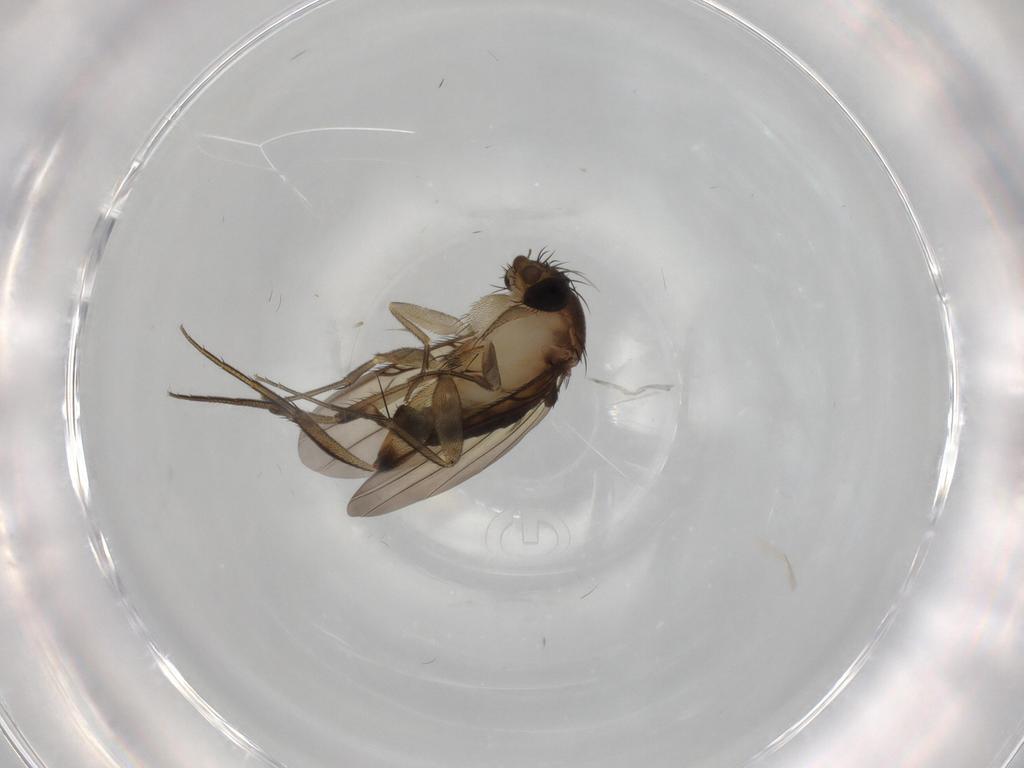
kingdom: Animalia
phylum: Arthropoda
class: Insecta
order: Diptera
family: Phoridae
